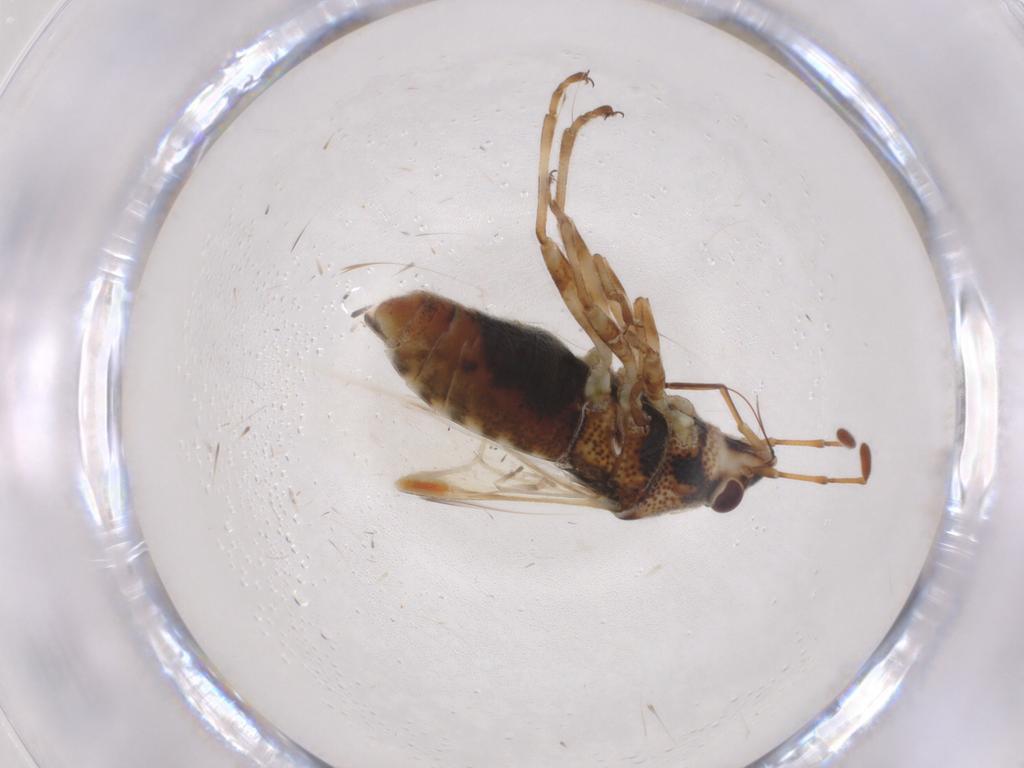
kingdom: Animalia
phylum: Arthropoda
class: Insecta
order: Hemiptera
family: Lygaeidae
